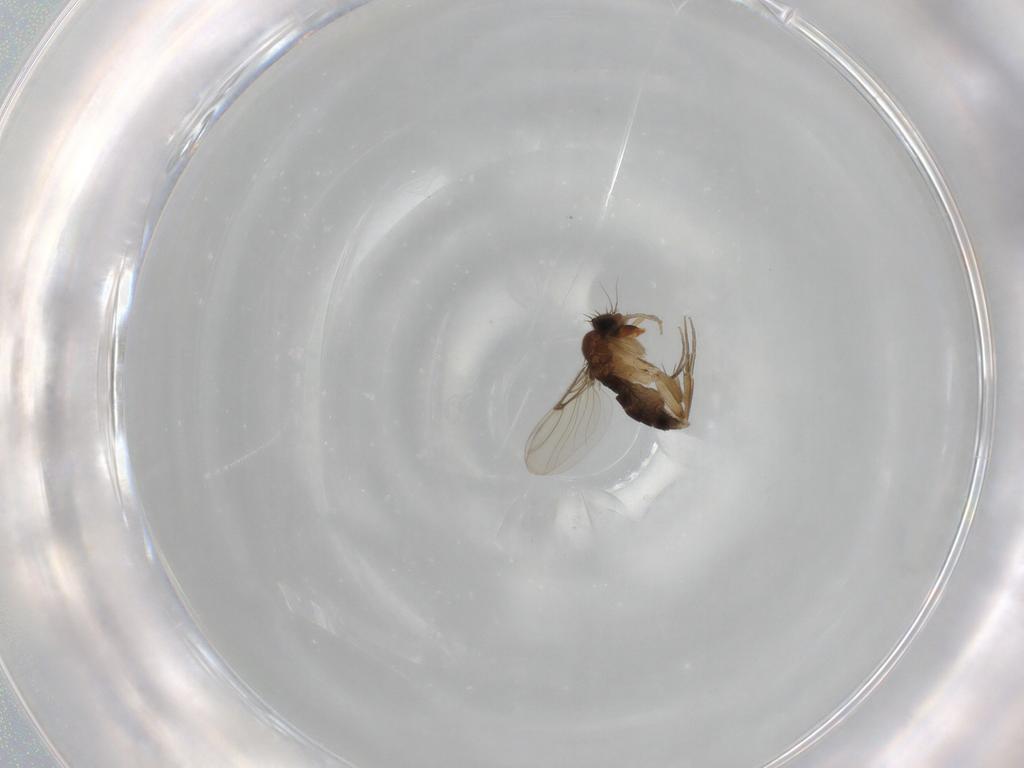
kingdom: Animalia
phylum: Arthropoda
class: Insecta
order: Diptera
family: Phoridae
